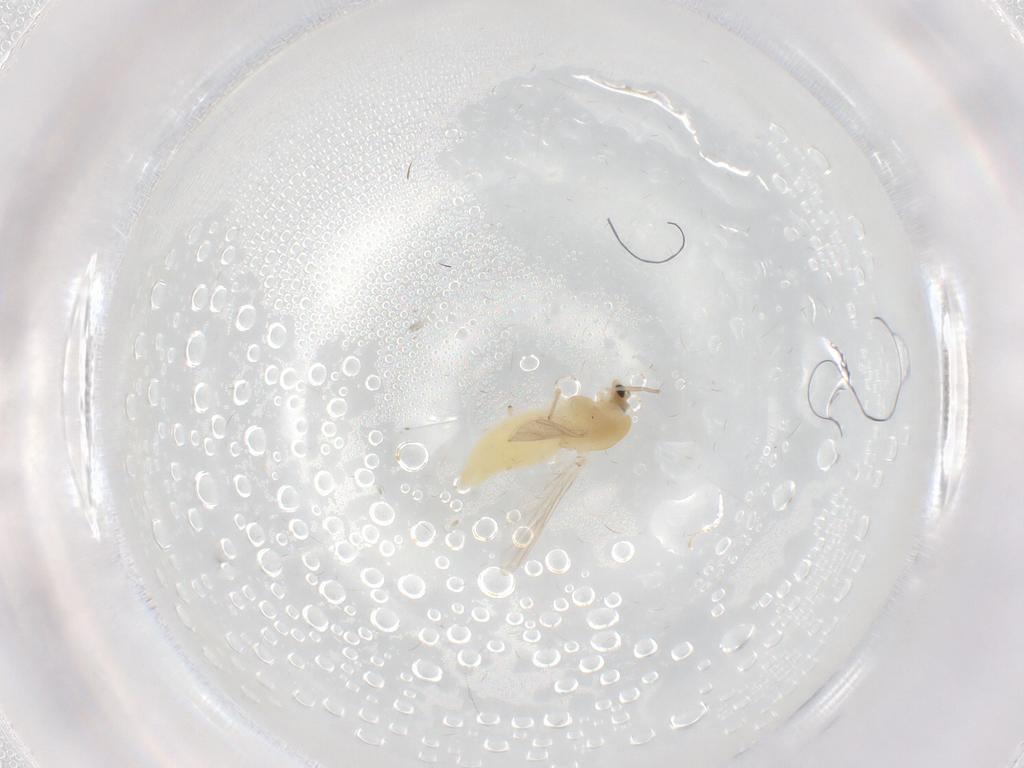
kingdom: Animalia
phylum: Arthropoda
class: Insecta
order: Diptera
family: Chironomidae
